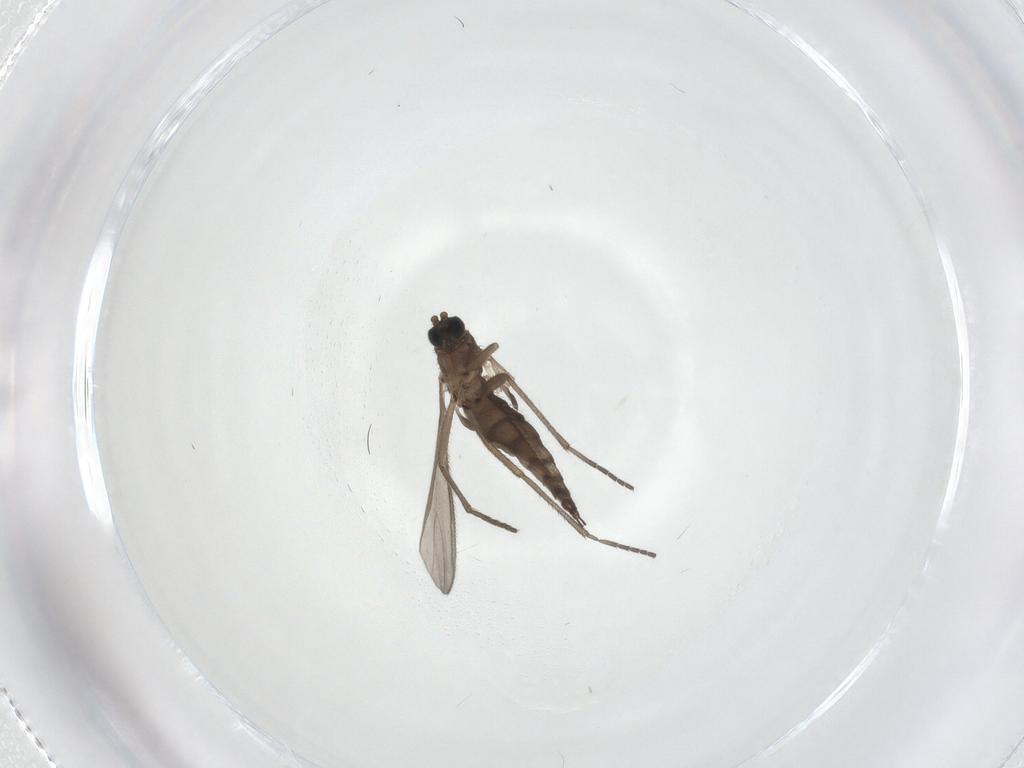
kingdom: Animalia
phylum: Arthropoda
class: Insecta
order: Diptera
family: Sciaridae
